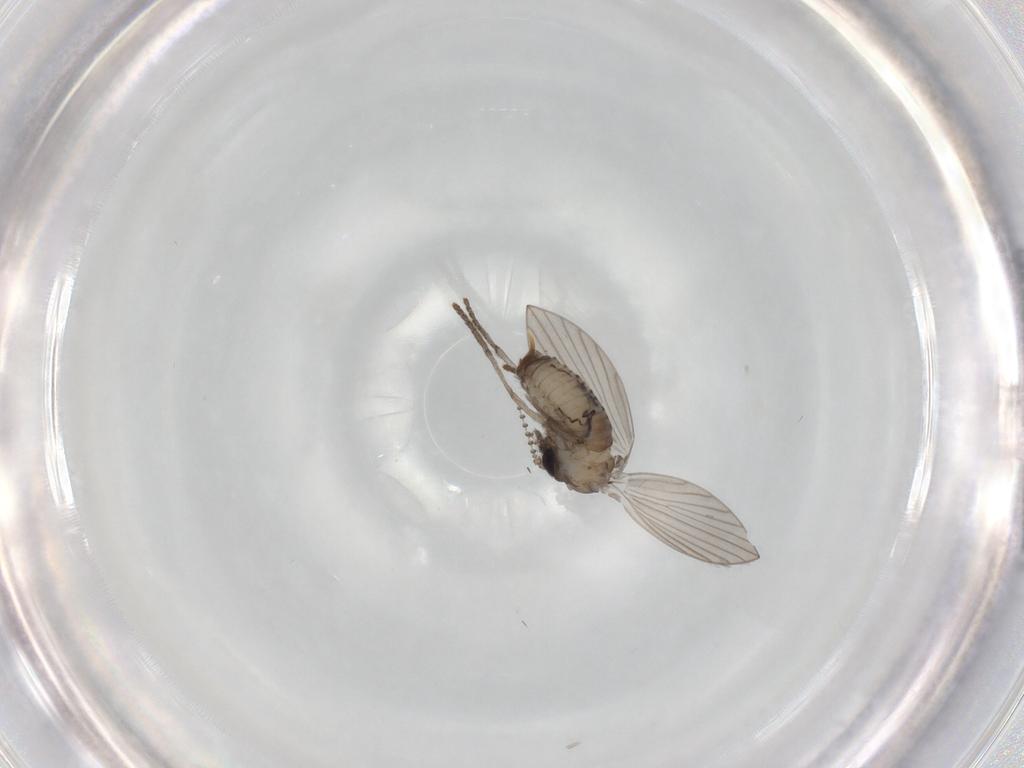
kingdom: Animalia
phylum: Arthropoda
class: Insecta
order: Diptera
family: Psychodidae
